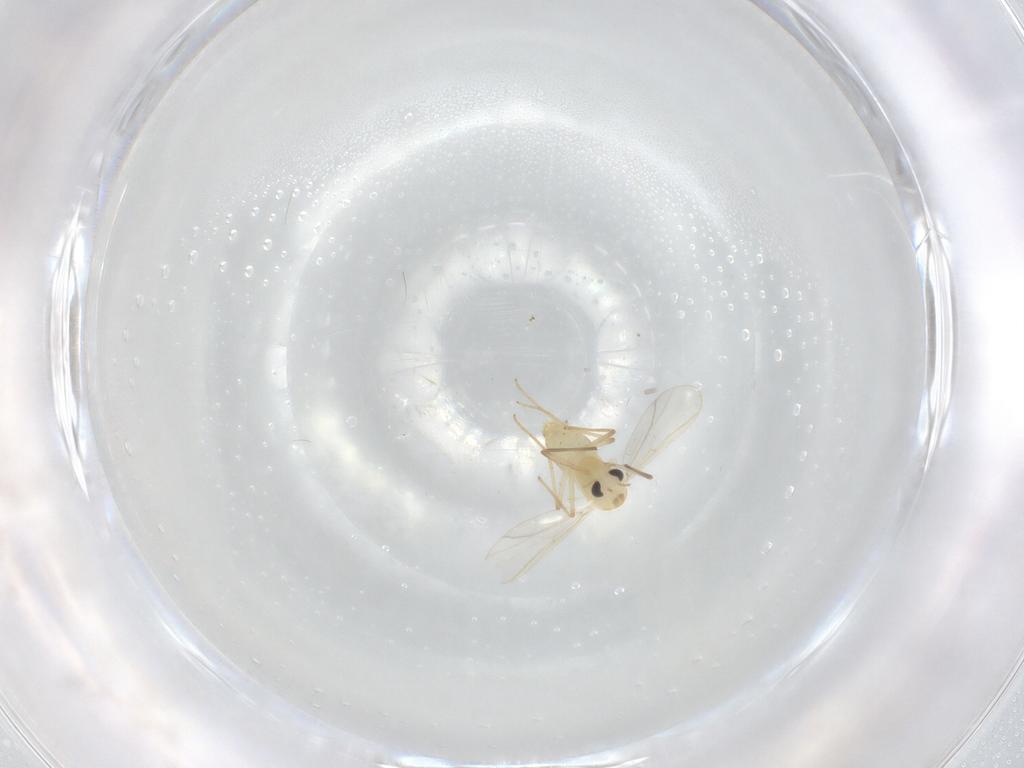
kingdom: Animalia
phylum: Arthropoda
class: Insecta
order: Diptera
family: Chironomidae
